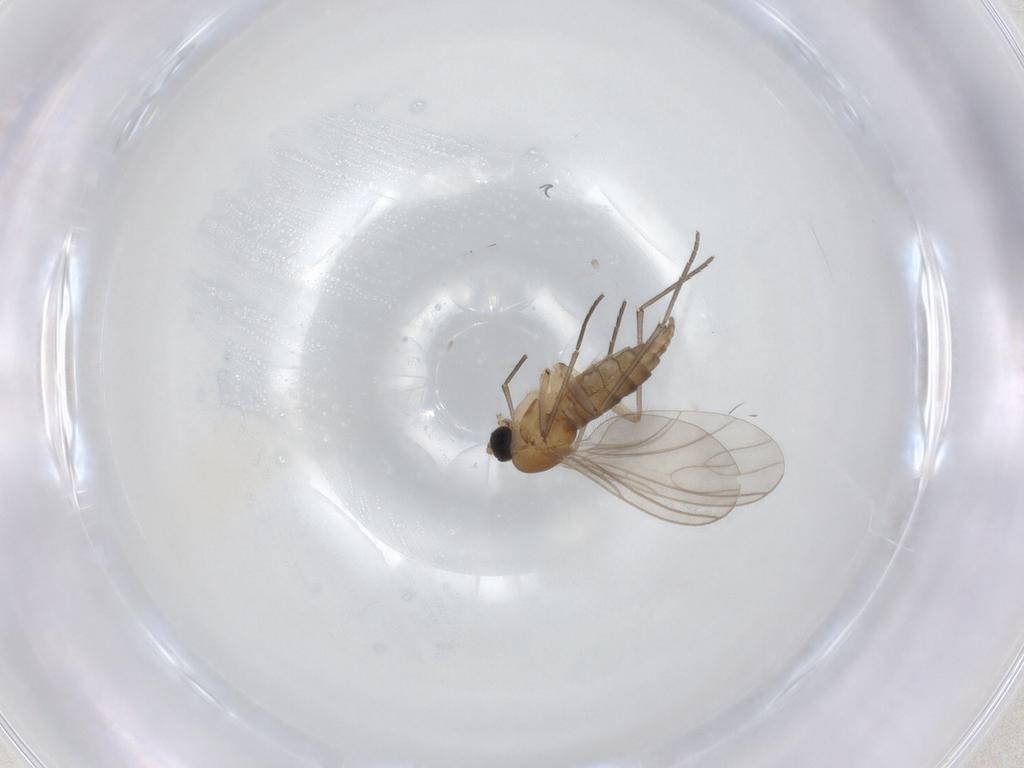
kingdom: Animalia
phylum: Arthropoda
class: Insecta
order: Diptera
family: Sciaridae
